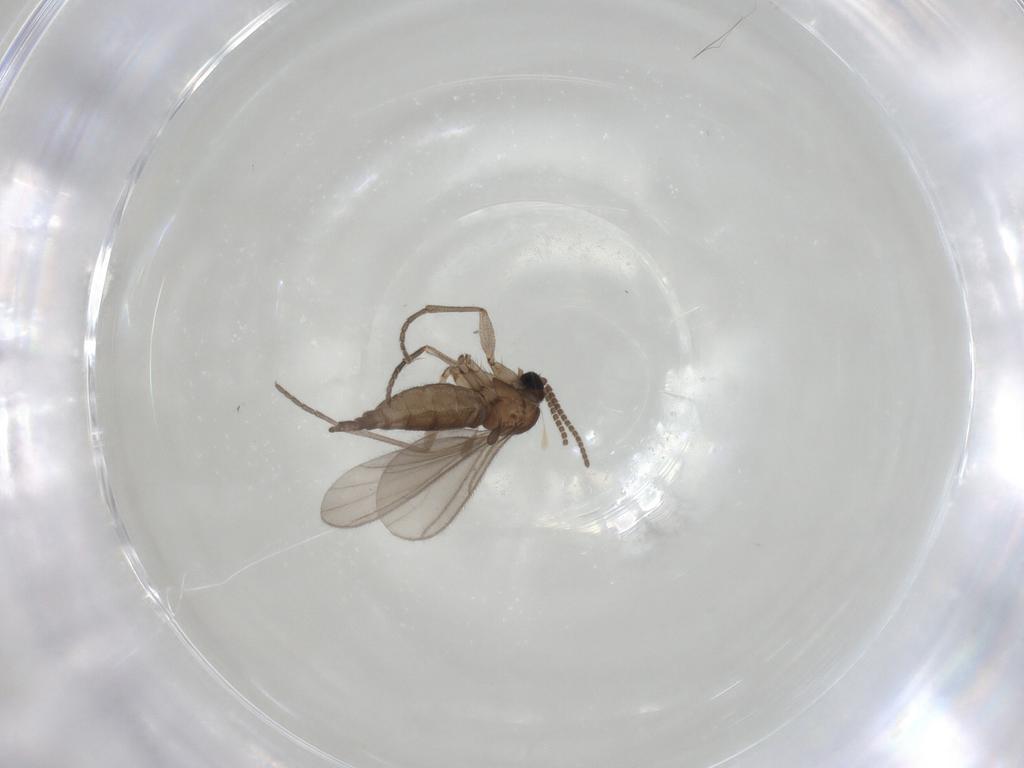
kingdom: Animalia
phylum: Arthropoda
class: Insecta
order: Diptera
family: Sciaridae
